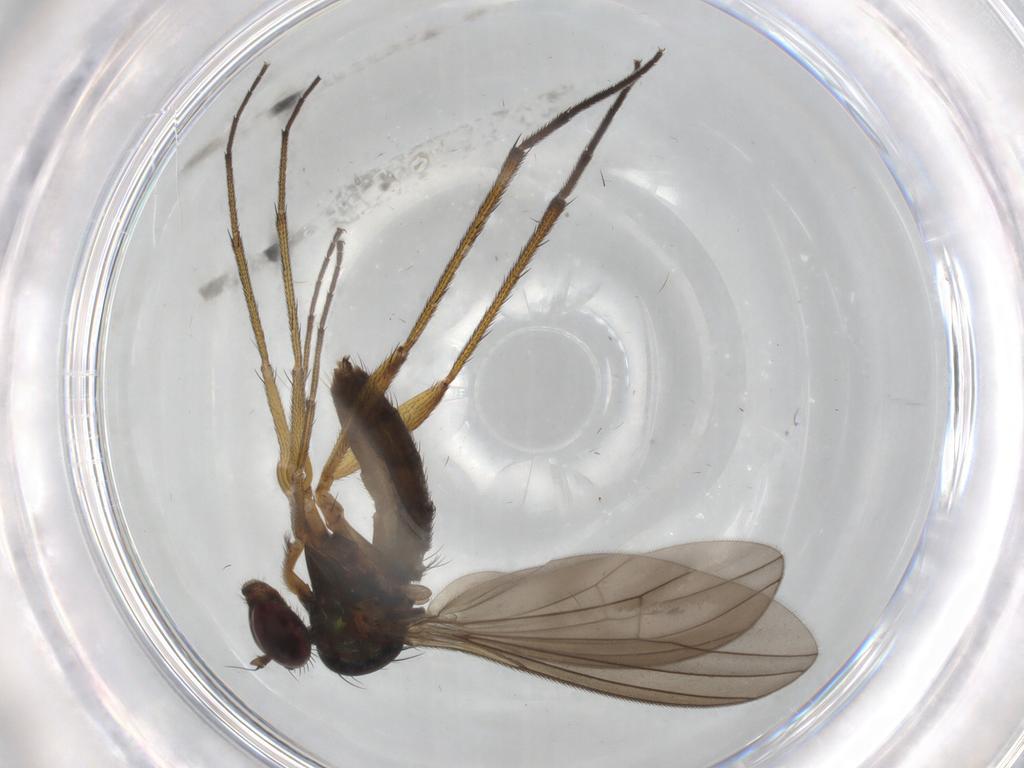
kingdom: Animalia
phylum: Arthropoda
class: Insecta
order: Diptera
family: Dolichopodidae
